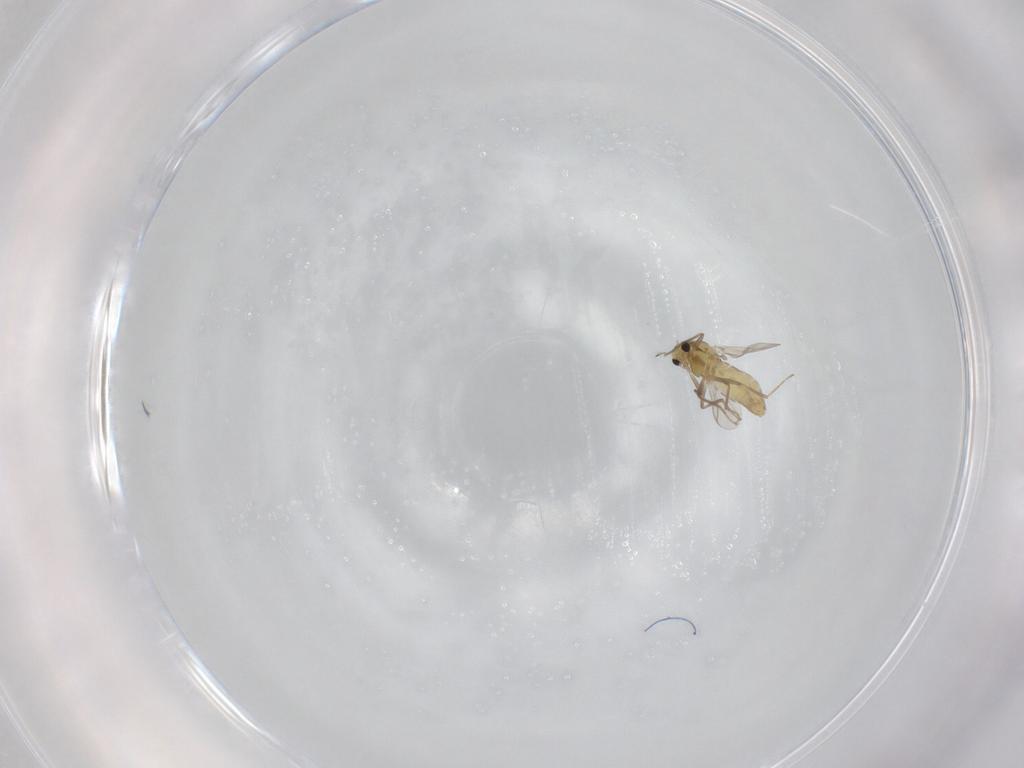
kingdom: Animalia
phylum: Arthropoda
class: Insecta
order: Diptera
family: Chironomidae
